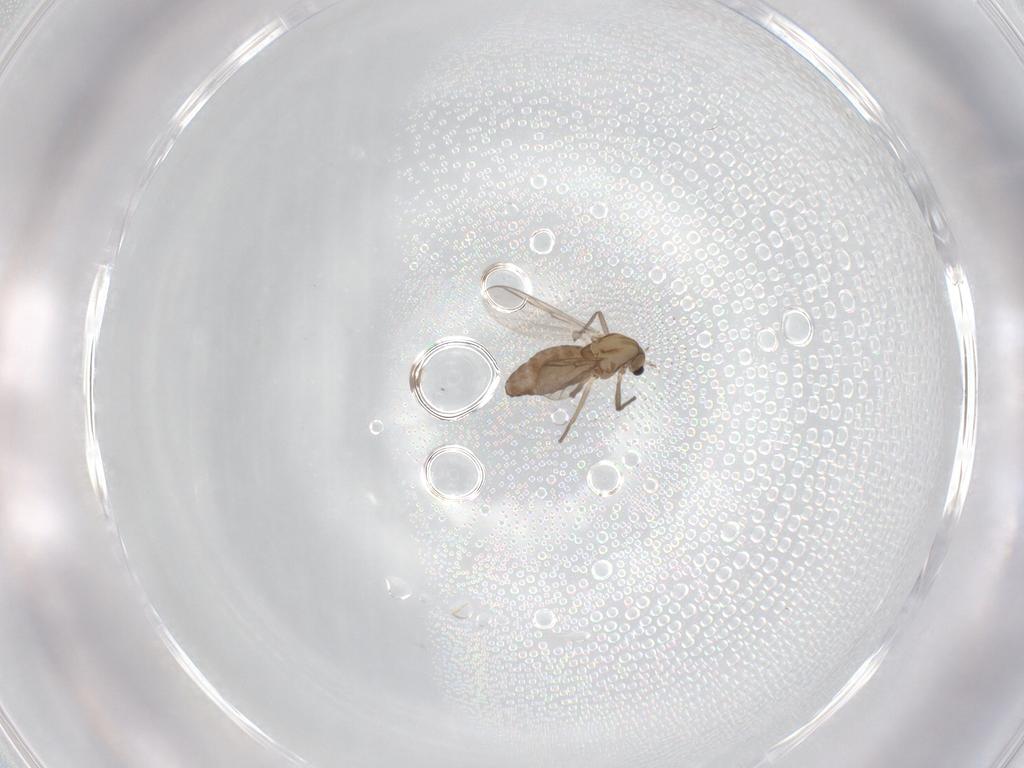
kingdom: Animalia
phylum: Arthropoda
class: Insecta
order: Diptera
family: Chironomidae
